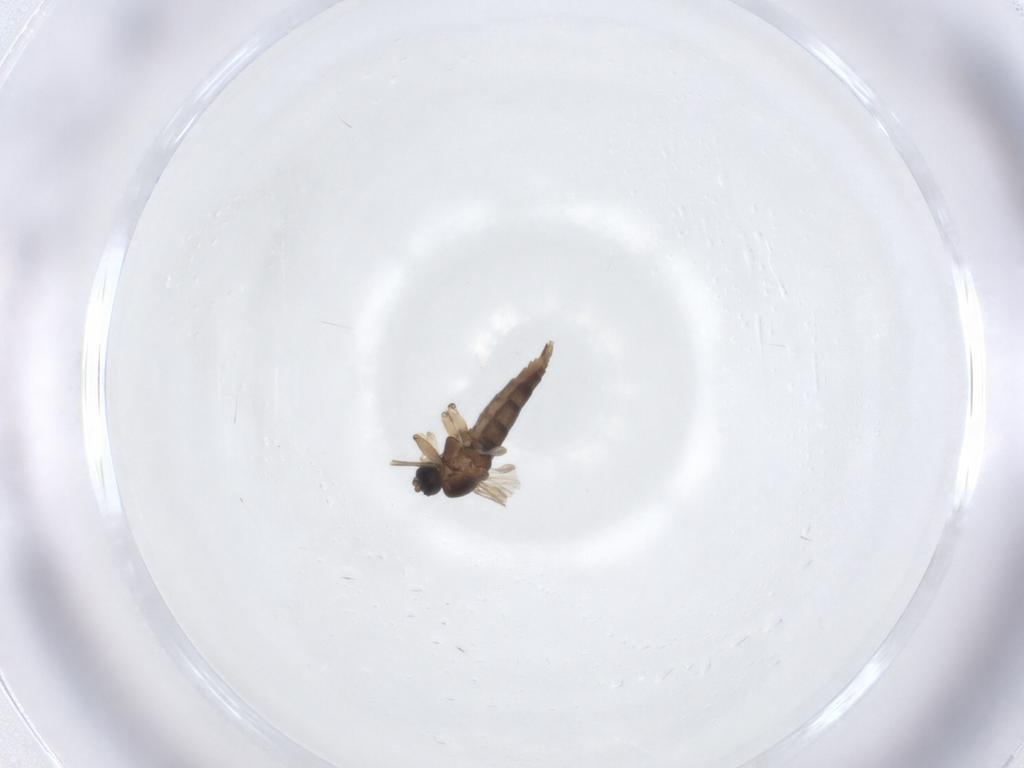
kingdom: Animalia
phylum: Arthropoda
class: Insecta
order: Diptera
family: Sciaridae
